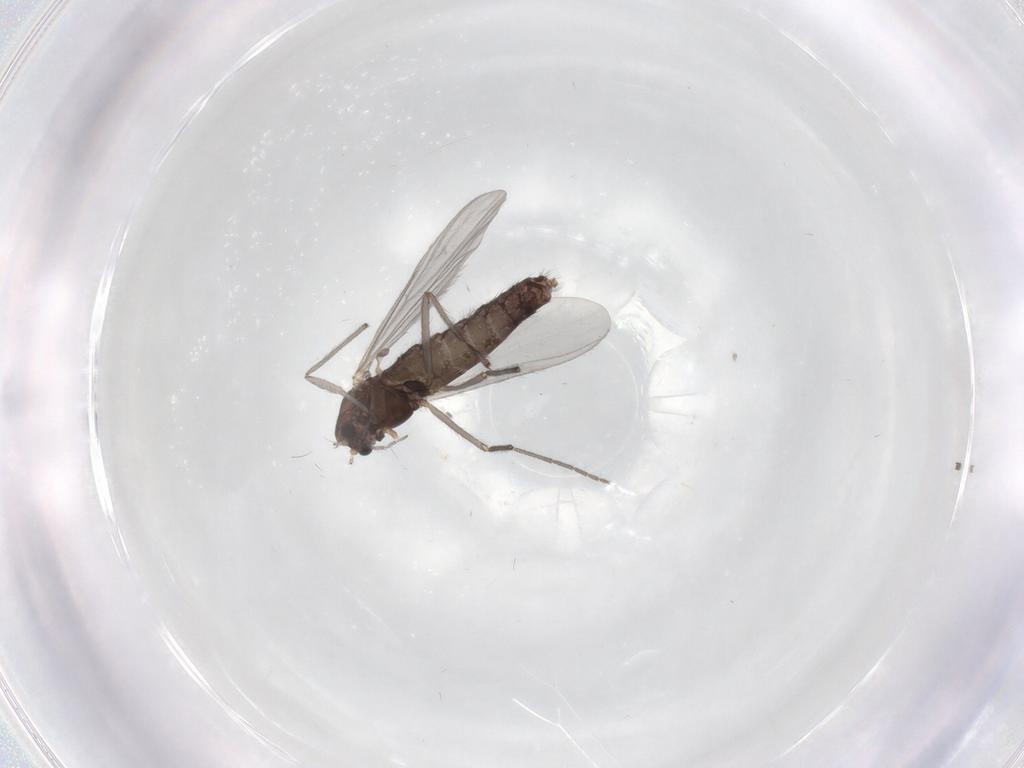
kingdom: Animalia
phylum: Arthropoda
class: Insecta
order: Diptera
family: Chironomidae
